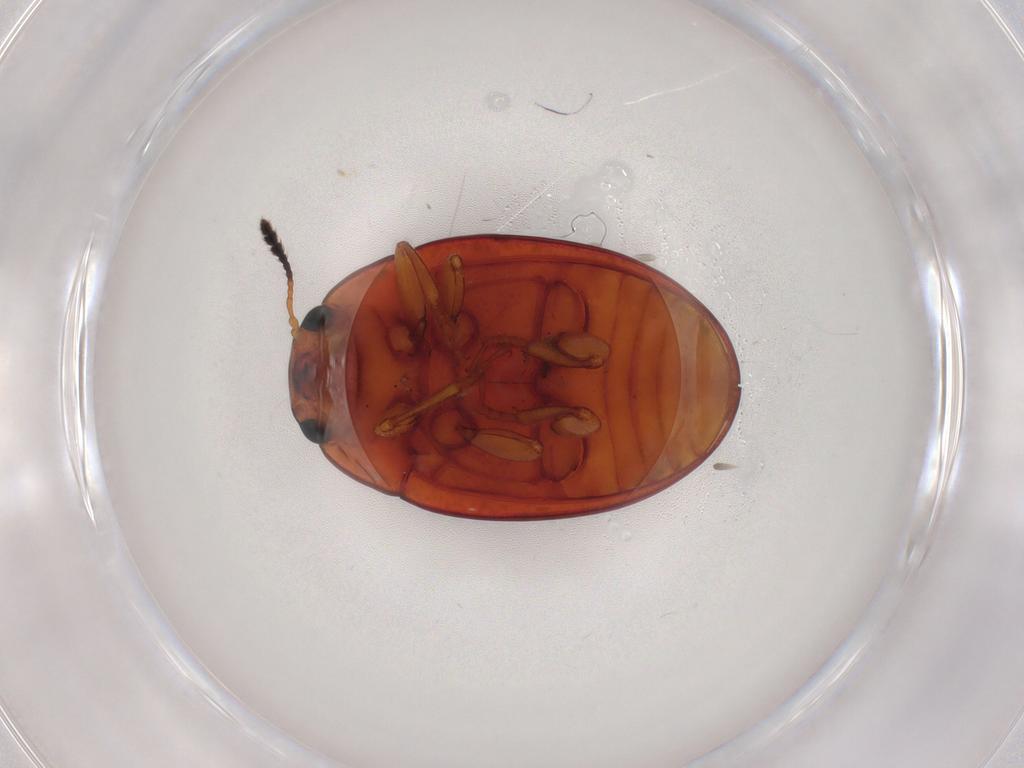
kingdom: Animalia
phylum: Arthropoda
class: Insecta
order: Coleoptera
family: Erotylidae
